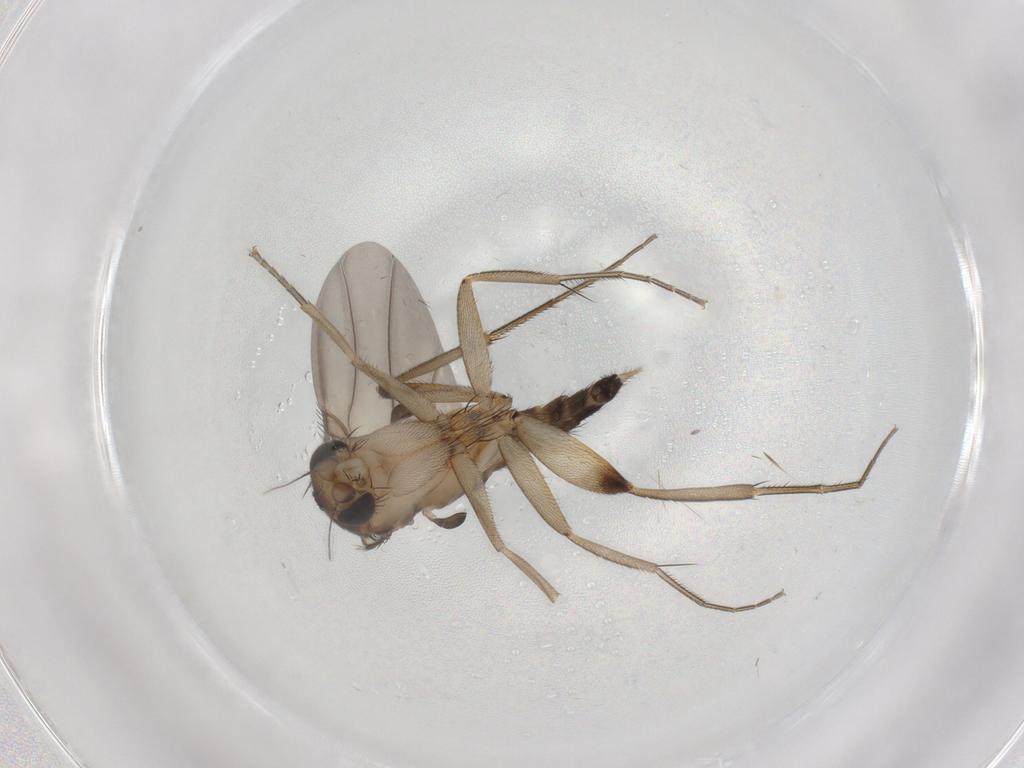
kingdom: Animalia
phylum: Arthropoda
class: Insecta
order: Diptera
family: Phoridae
